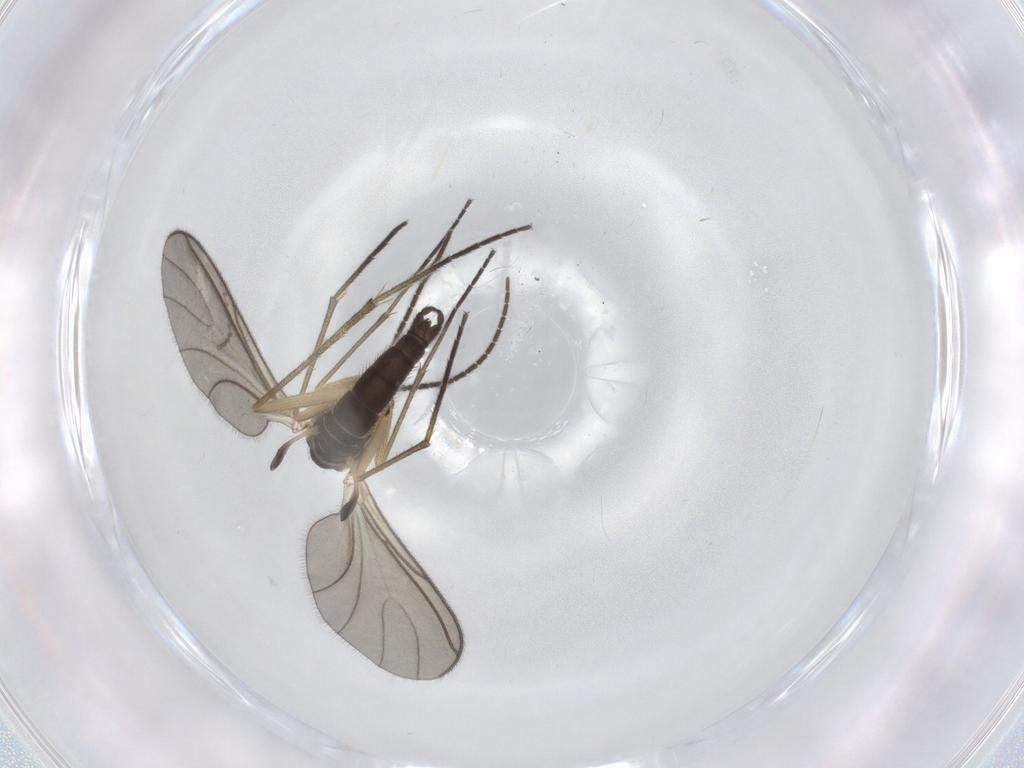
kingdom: Animalia
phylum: Arthropoda
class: Insecta
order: Diptera
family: Sciaridae
